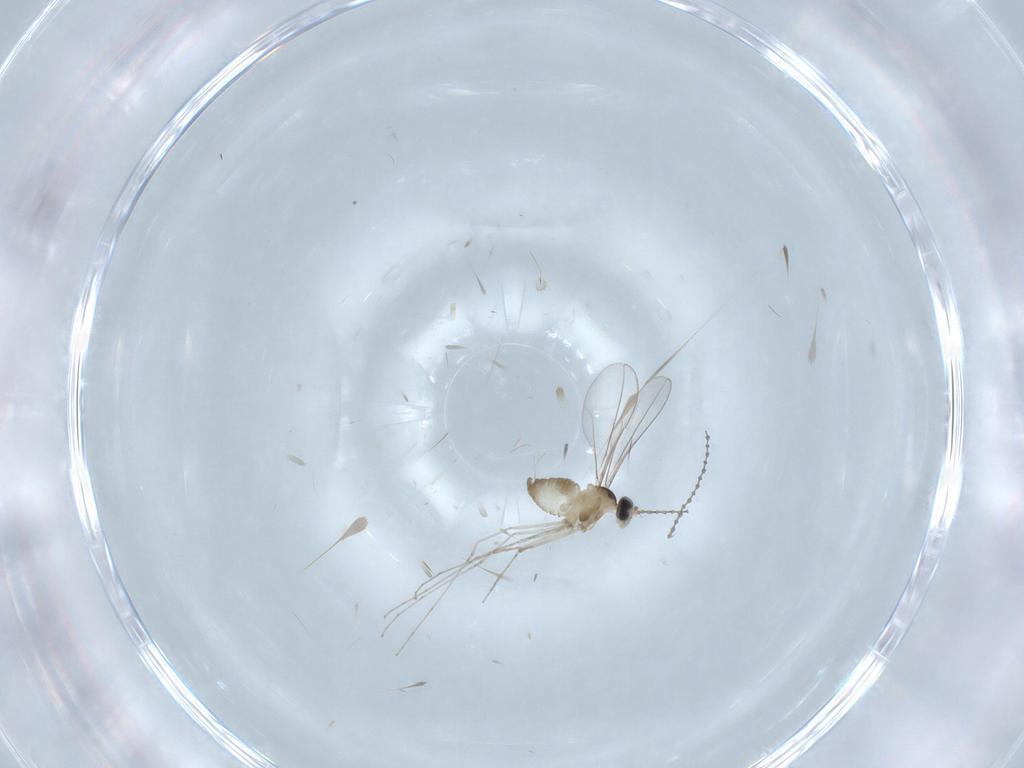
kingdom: Animalia
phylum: Arthropoda
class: Insecta
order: Diptera
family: Cecidomyiidae
